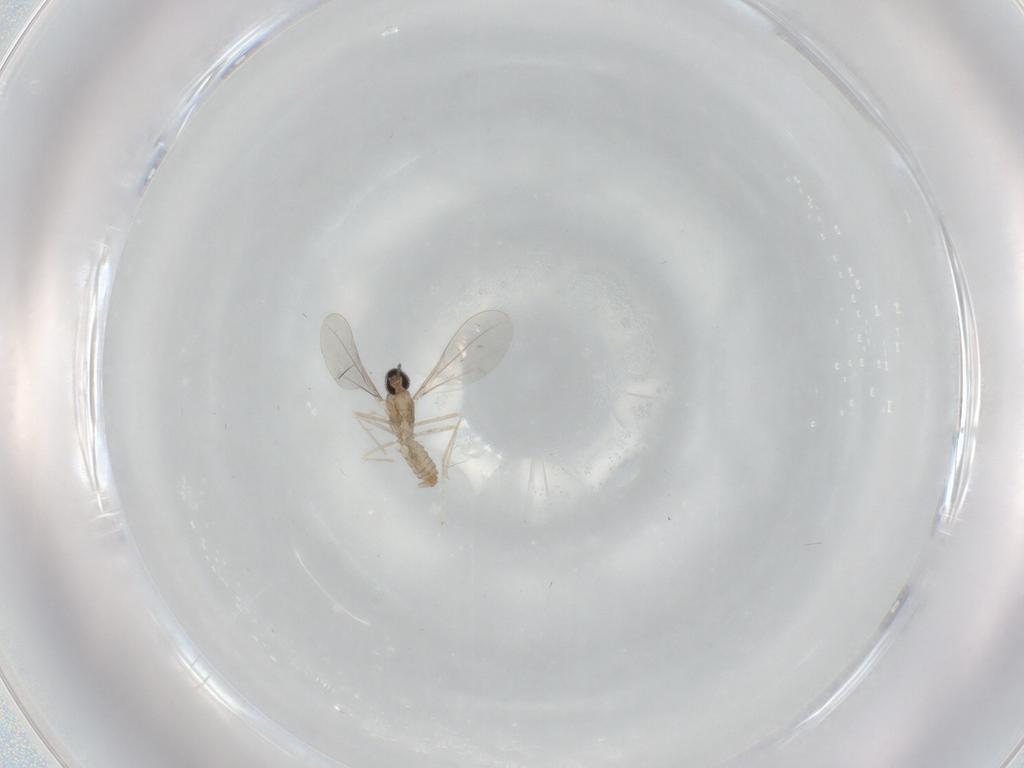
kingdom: Animalia
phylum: Arthropoda
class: Insecta
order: Diptera
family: Cecidomyiidae
